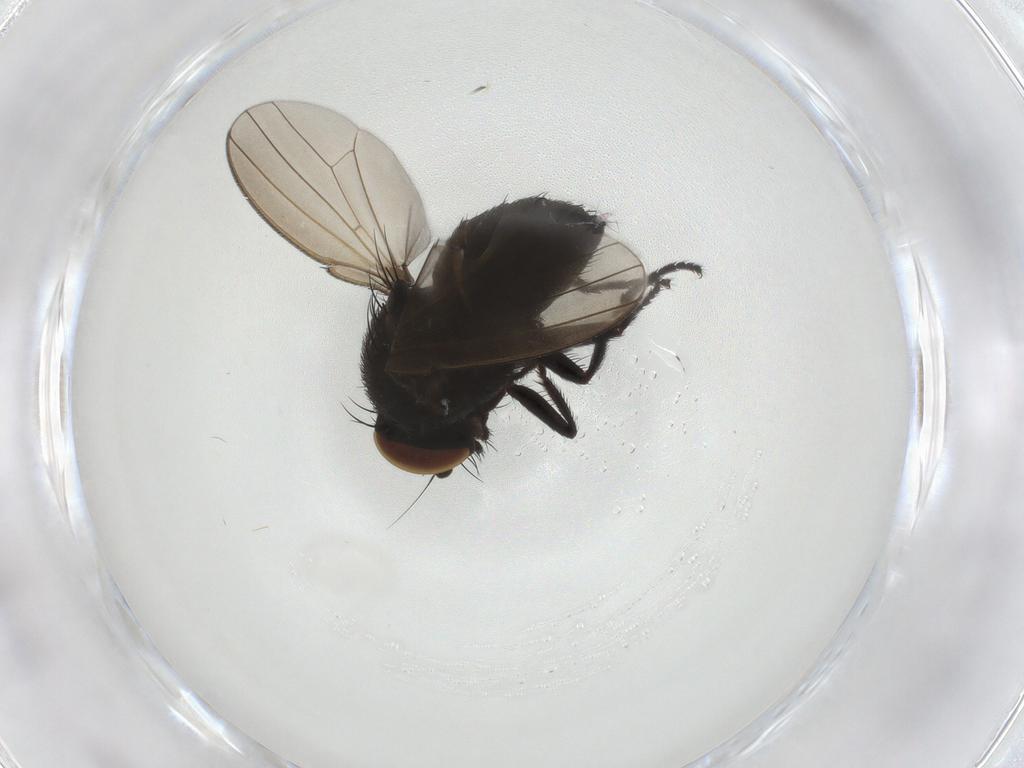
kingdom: Animalia
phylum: Arthropoda
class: Insecta
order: Diptera
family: Milichiidae
